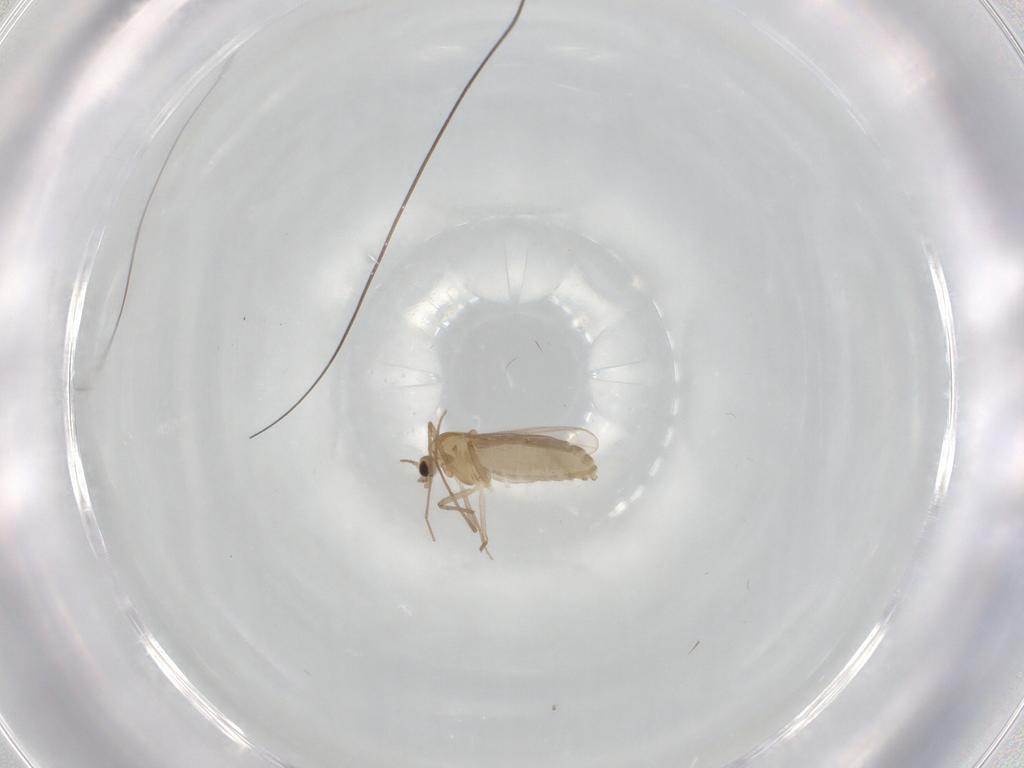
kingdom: Animalia
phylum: Arthropoda
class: Insecta
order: Diptera
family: Chironomidae
